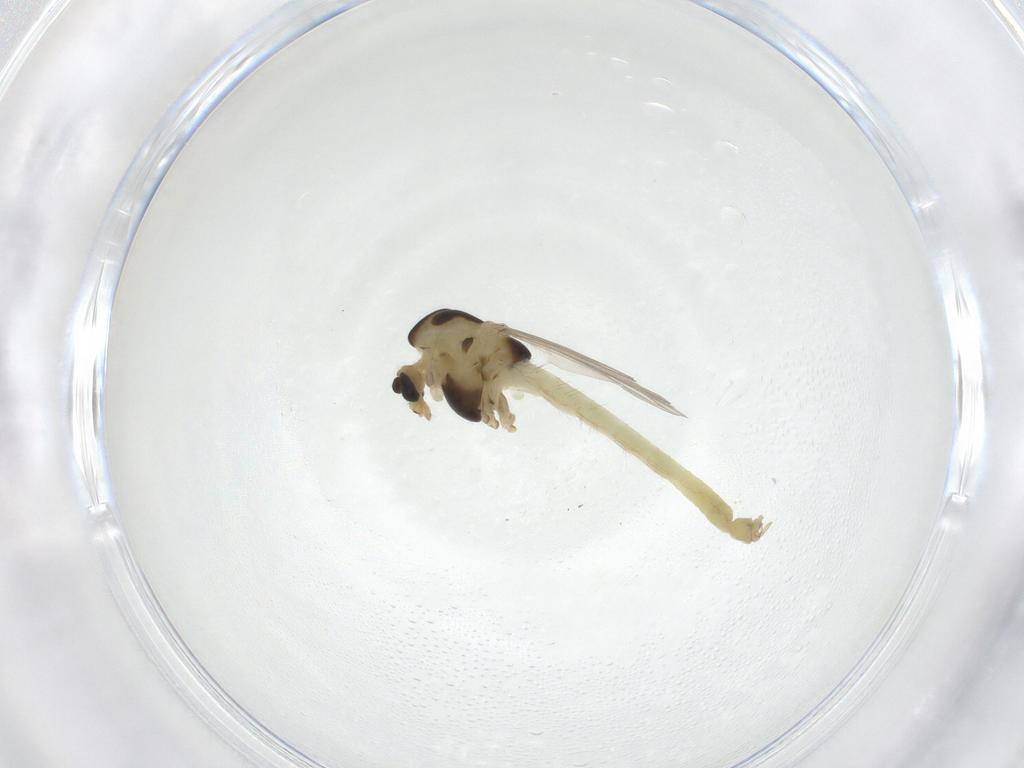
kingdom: Animalia
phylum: Arthropoda
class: Insecta
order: Diptera
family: Chironomidae
